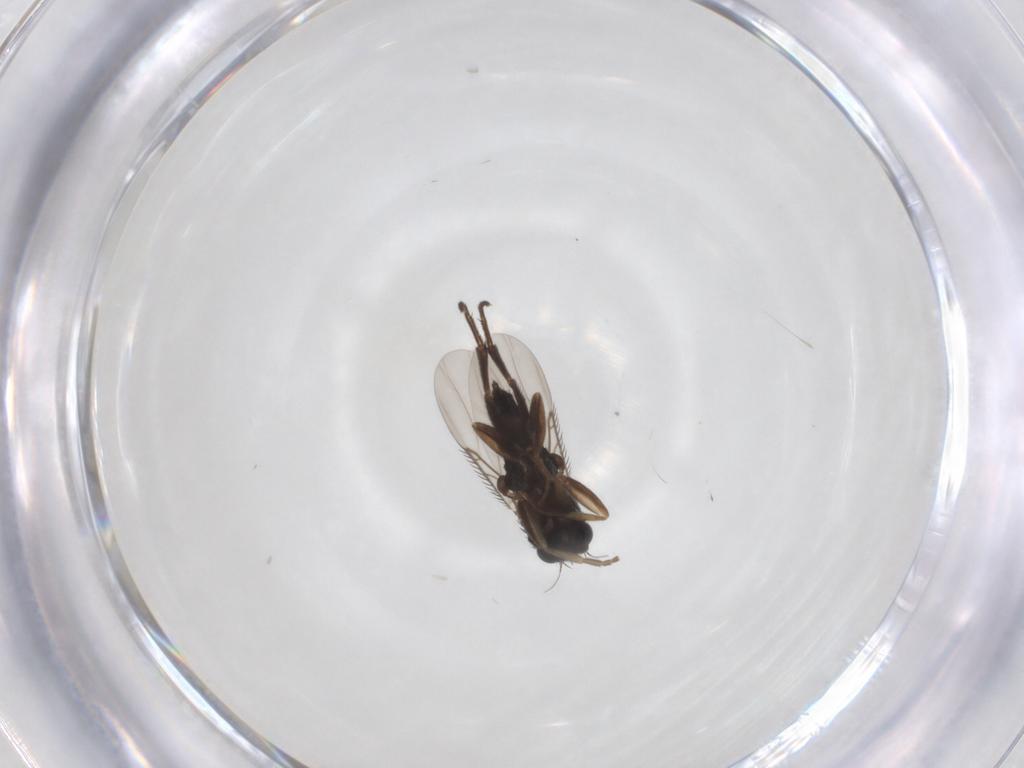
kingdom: Animalia
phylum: Arthropoda
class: Insecta
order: Diptera
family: Phoridae
